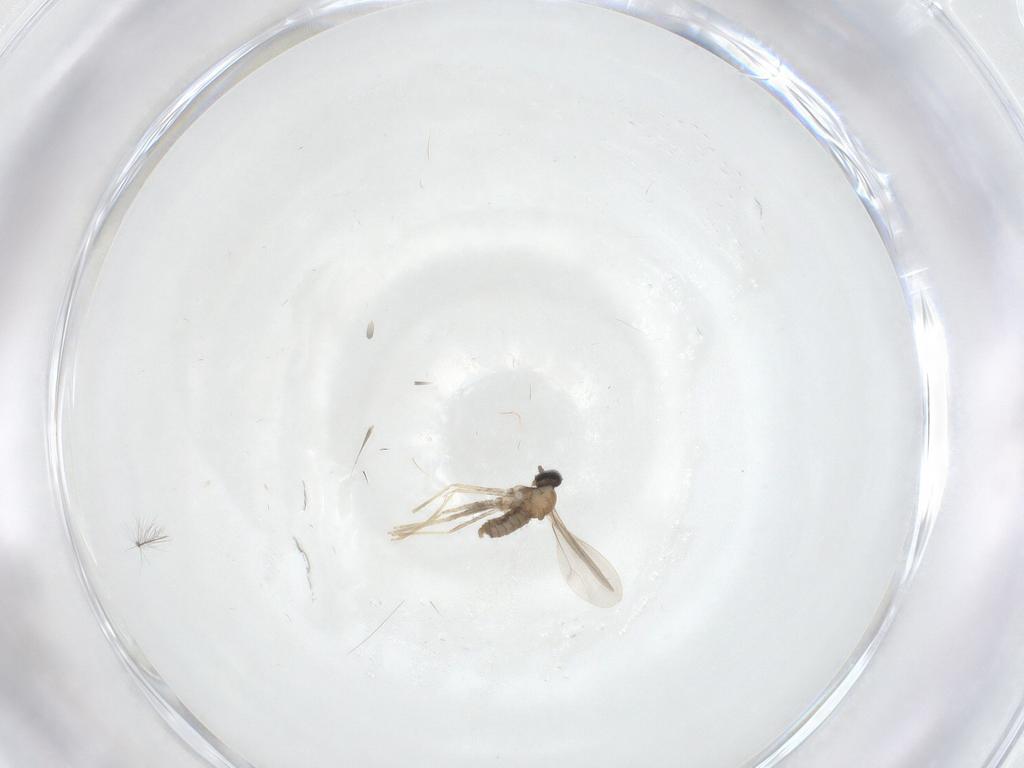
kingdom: Animalia
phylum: Arthropoda
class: Insecta
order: Diptera
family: Cecidomyiidae
